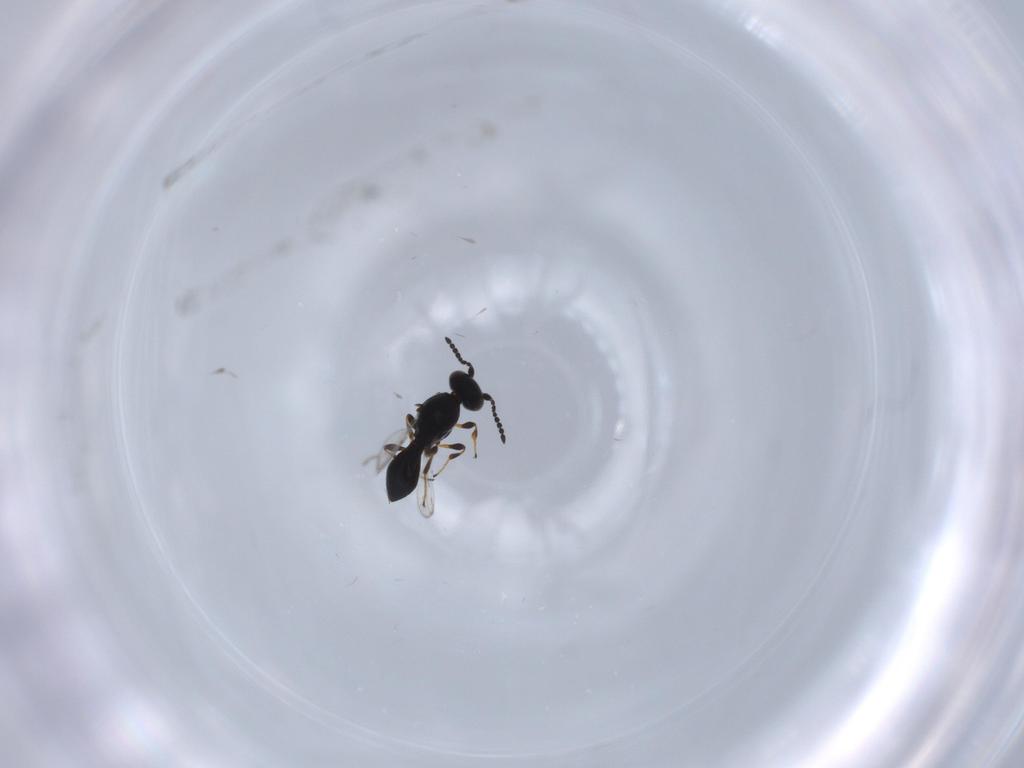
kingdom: Animalia
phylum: Arthropoda
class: Insecta
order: Hymenoptera
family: Platygastridae
